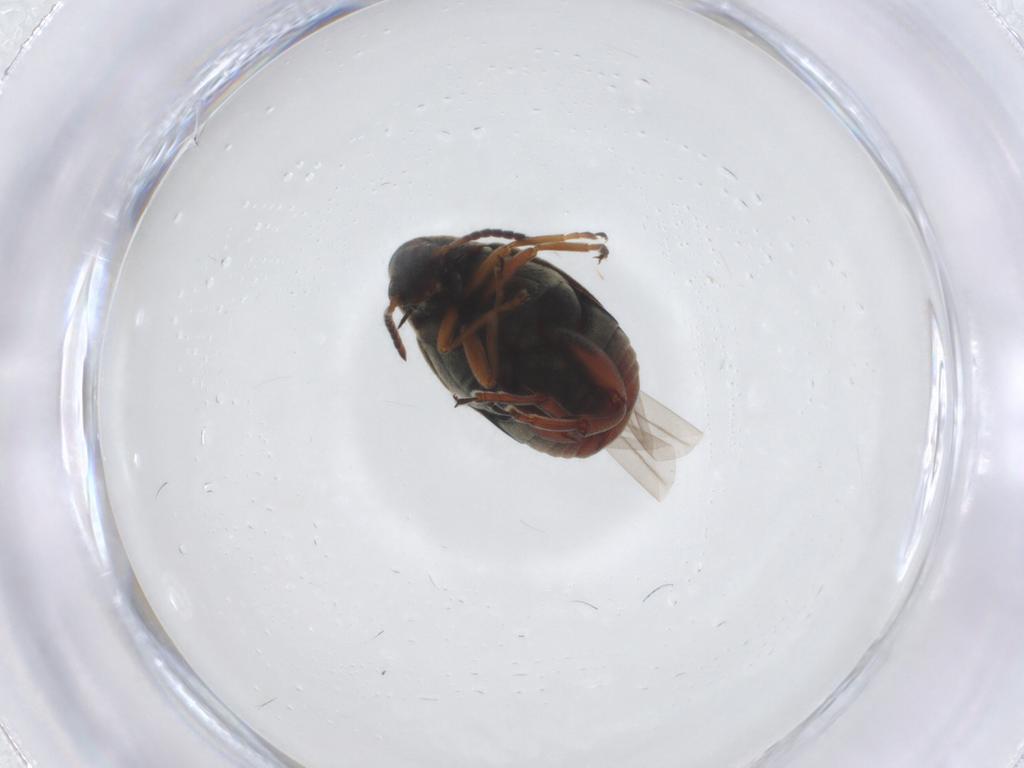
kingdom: Animalia
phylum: Arthropoda
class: Insecta
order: Coleoptera
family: Chrysomelidae
